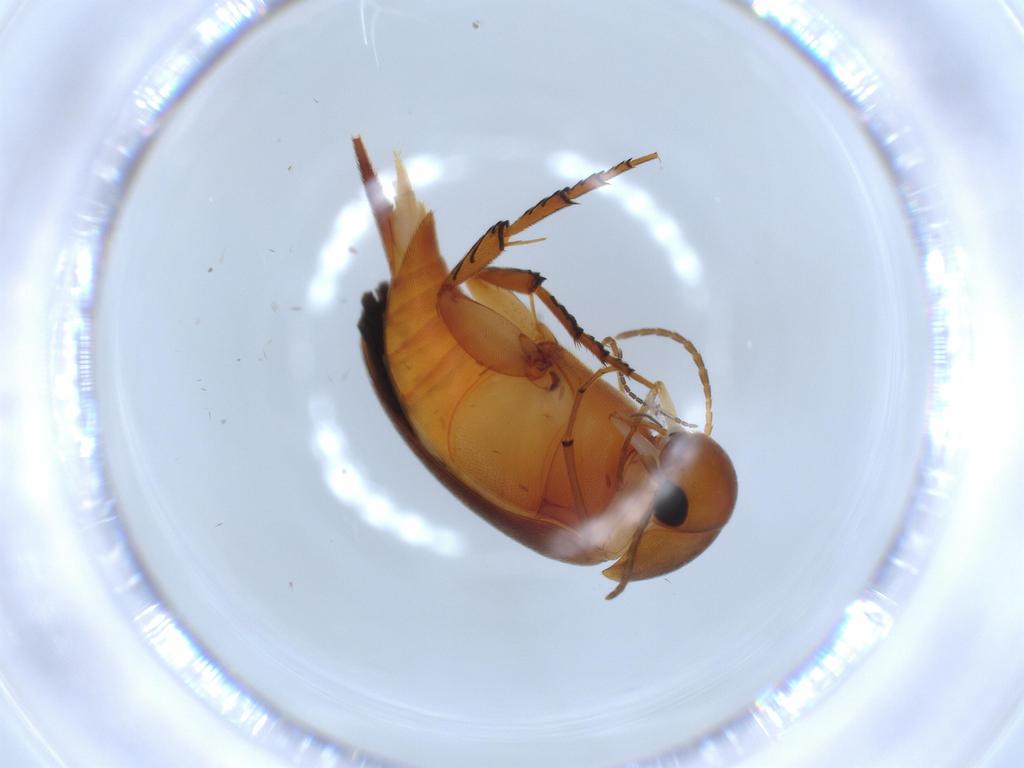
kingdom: Animalia
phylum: Arthropoda
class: Insecta
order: Coleoptera
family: Mordellidae
